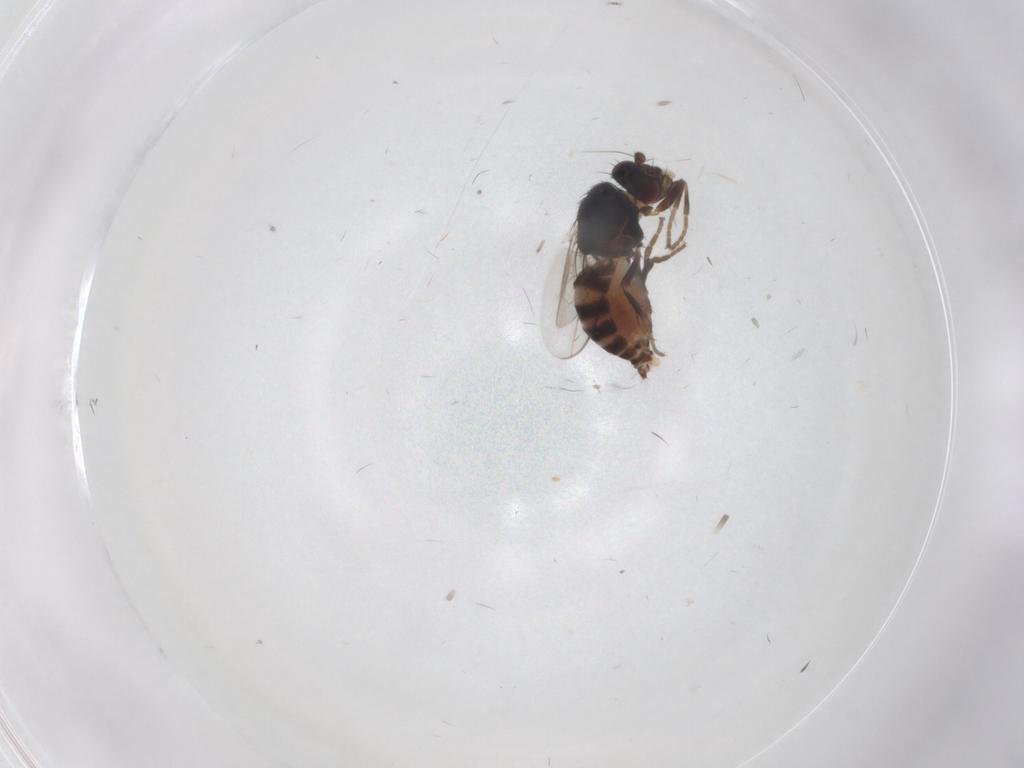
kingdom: Animalia
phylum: Arthropoda
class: Insecta
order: Diptera
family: Sphaeroceridae
